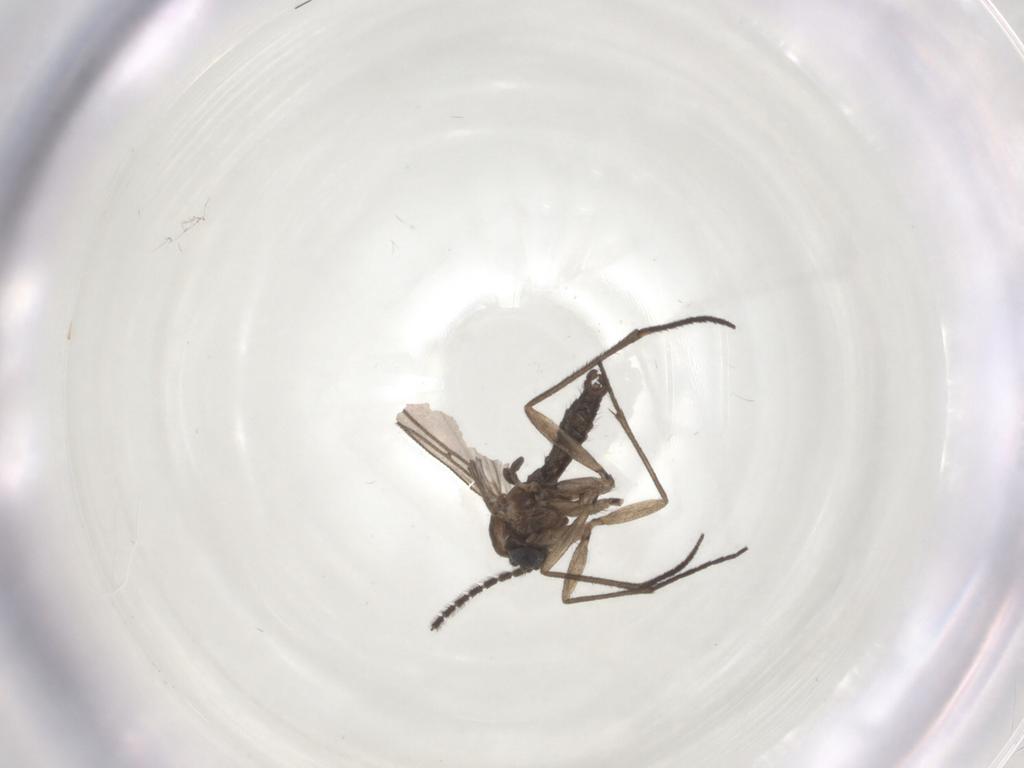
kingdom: Animalia
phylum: Arthropoda
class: Insecta
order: Diptera
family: Sciaridae
